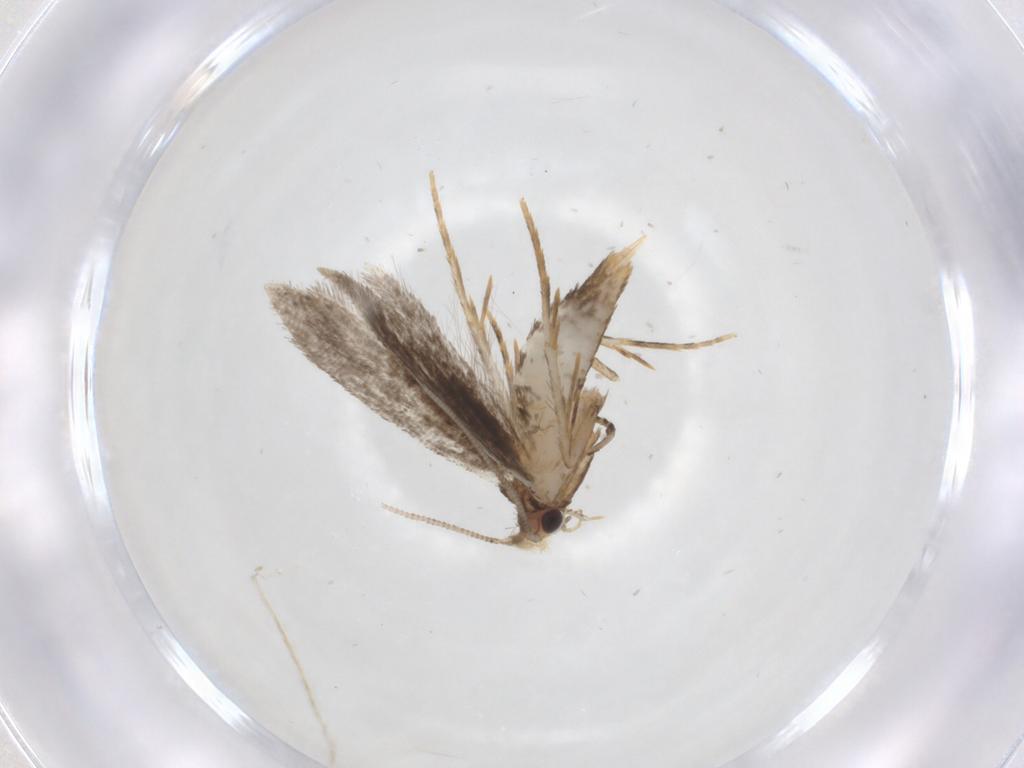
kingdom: Animalia
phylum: Arthropoda
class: Insecta
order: Lepidoptera
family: Tineidae
